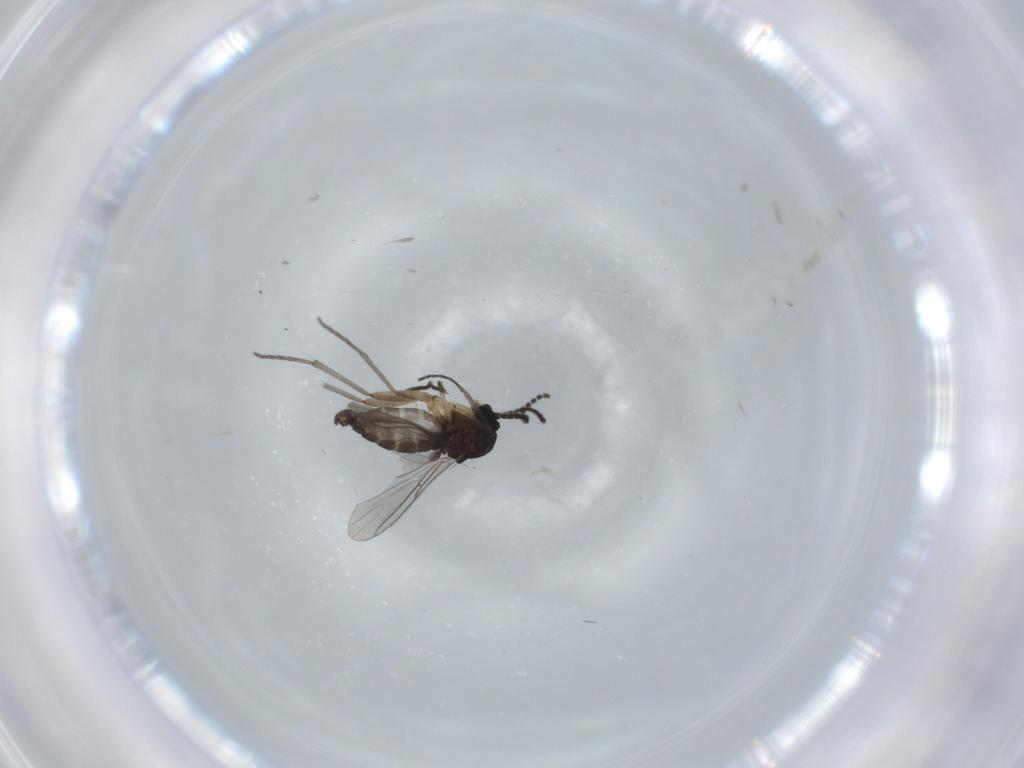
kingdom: Animalia
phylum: Arthropoda
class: Insecta
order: Diptera
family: Sciaridae
